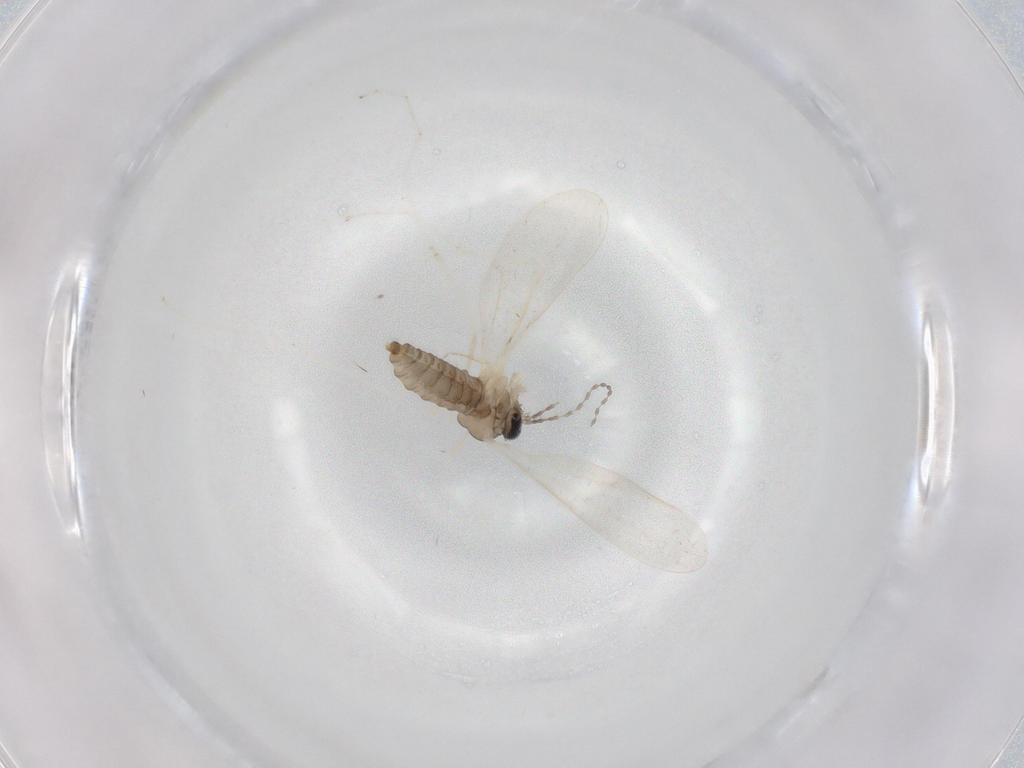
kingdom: Animalia
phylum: Arthropoda
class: Insecta
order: Diptera
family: Cecidomyiidae
